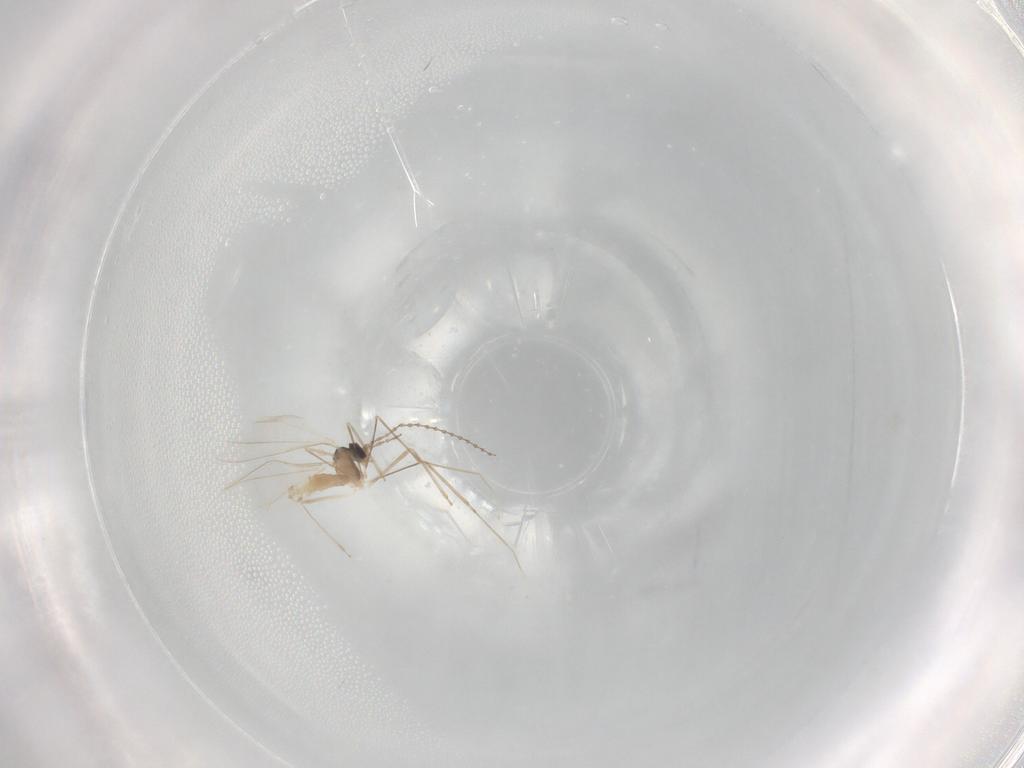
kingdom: Animalia
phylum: Arthropoda
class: Insecta
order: Diptera
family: Cecidomyiidae
